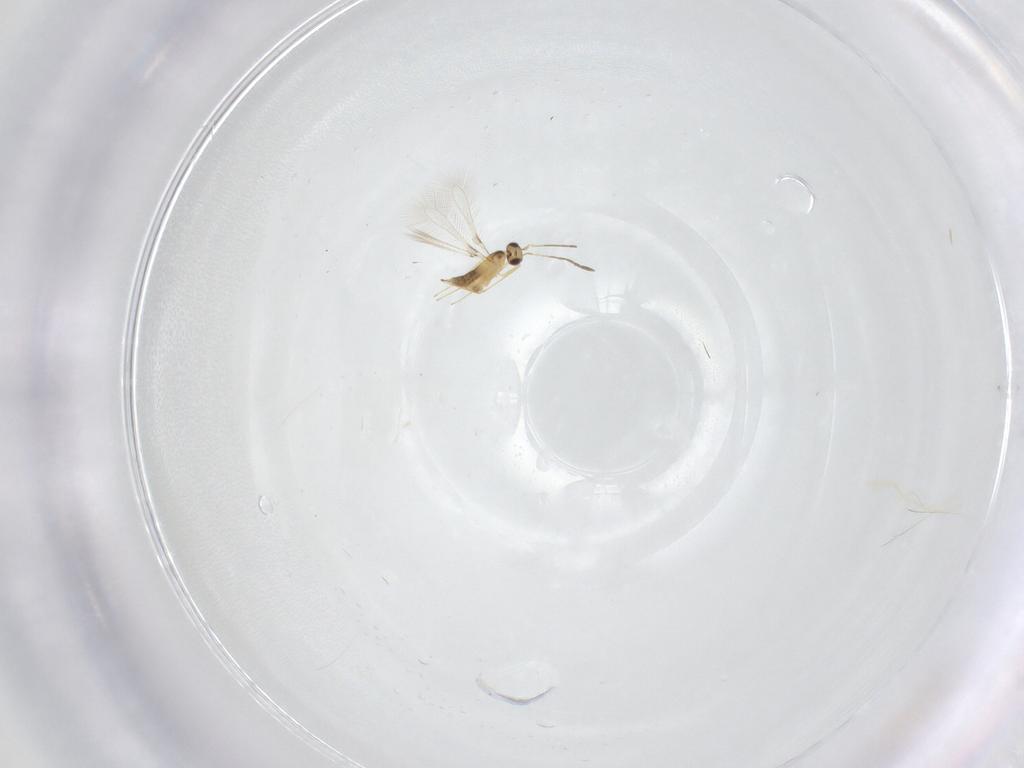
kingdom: Animalia
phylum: Arthropoda
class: Insecta
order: Hymenoptera
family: Mymaridae
